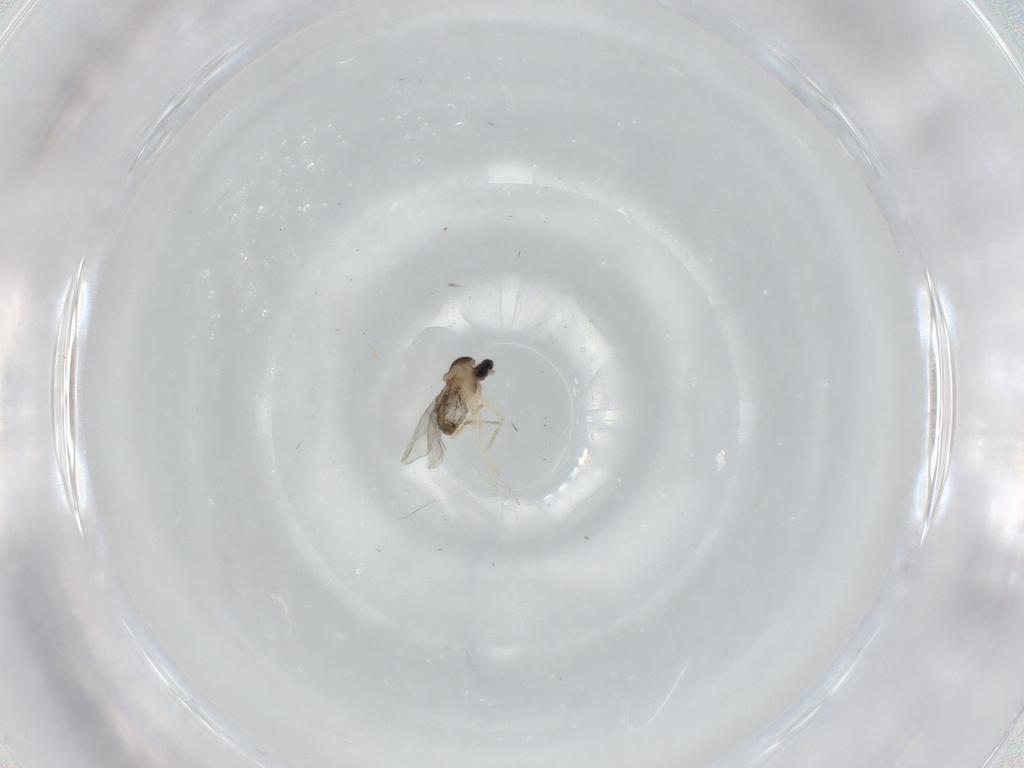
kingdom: Animalia
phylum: Arthropoda
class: Insecta
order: Diptera
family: Cecidomyiidae
